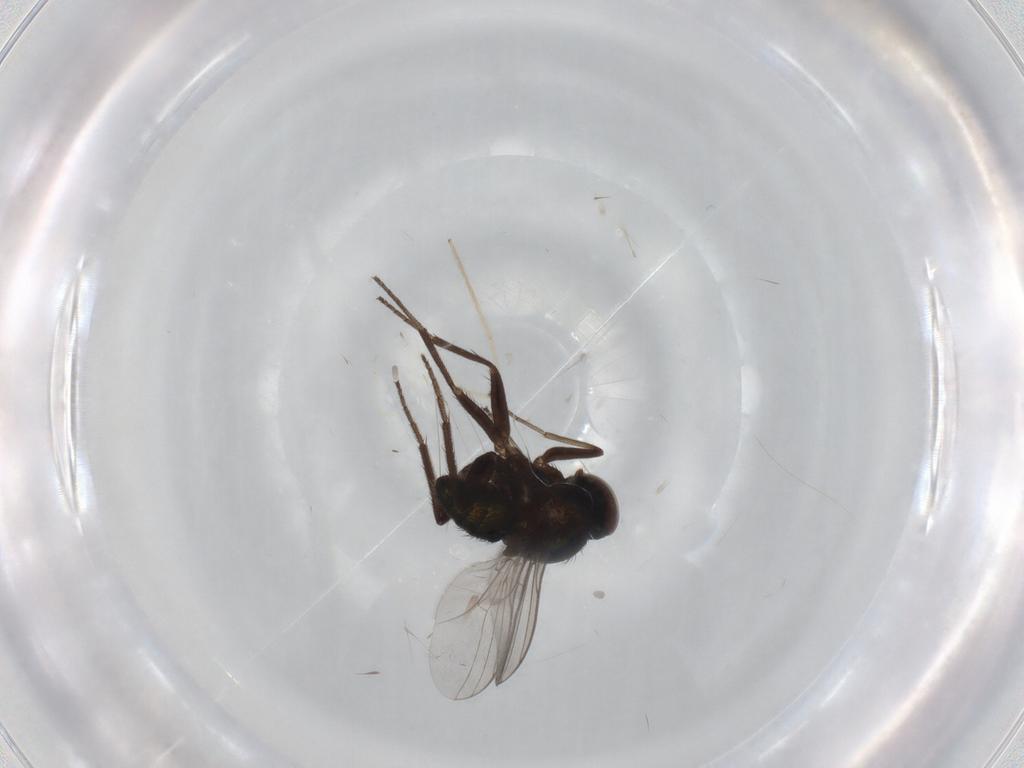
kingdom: Animalia
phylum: Arthropoda
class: Insecta
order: Diptera
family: Dolichopodidae
